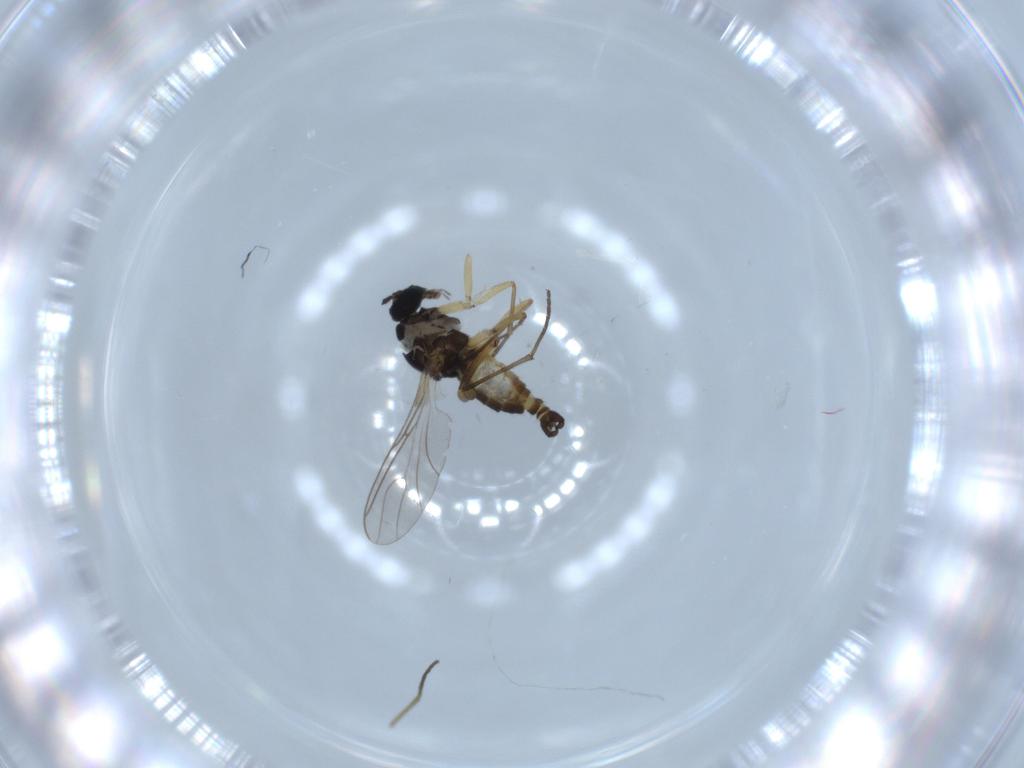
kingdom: Animalia
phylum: Arthropoda
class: Insecta
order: Diptera
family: Sciaridae
